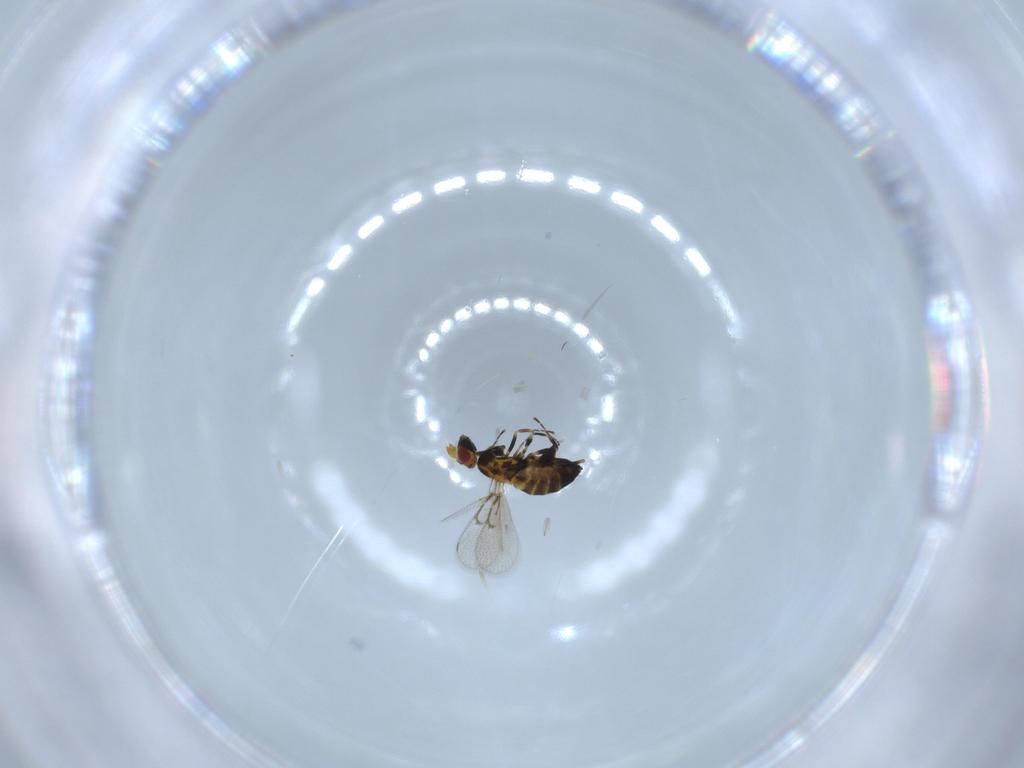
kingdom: Animalia
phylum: Arthropoda
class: Insecta
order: Hymenoptera
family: Trichogrammatidae
